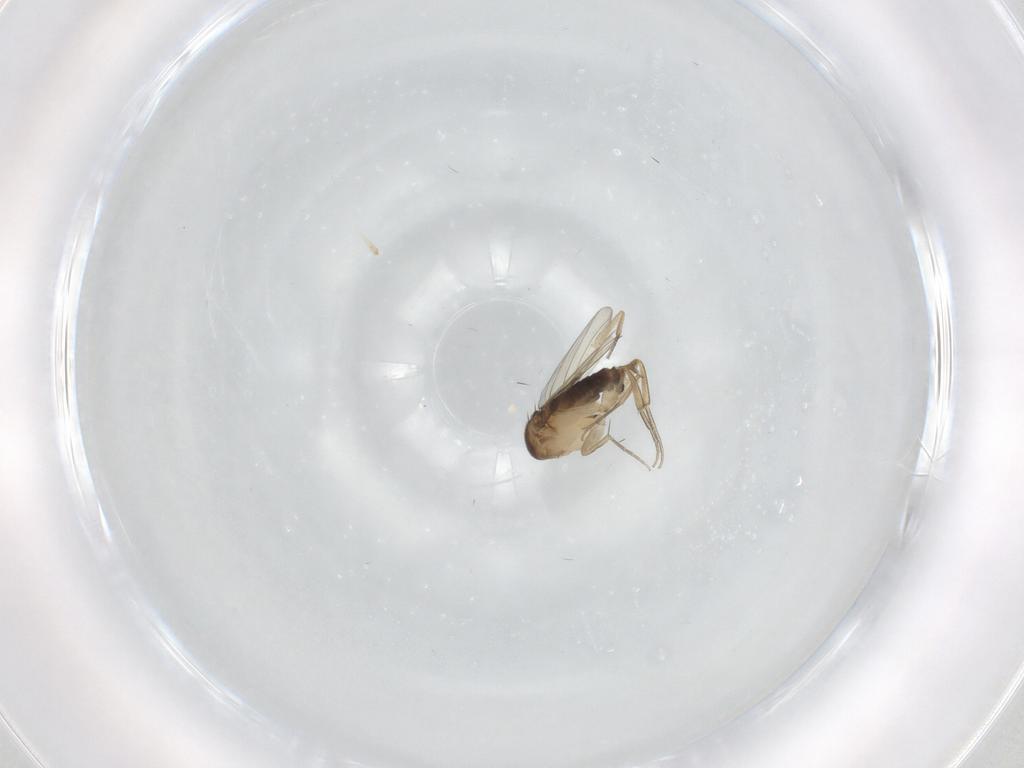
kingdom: Animalia
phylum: Arthropoda
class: Insecta
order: Diptera
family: Phoridae
